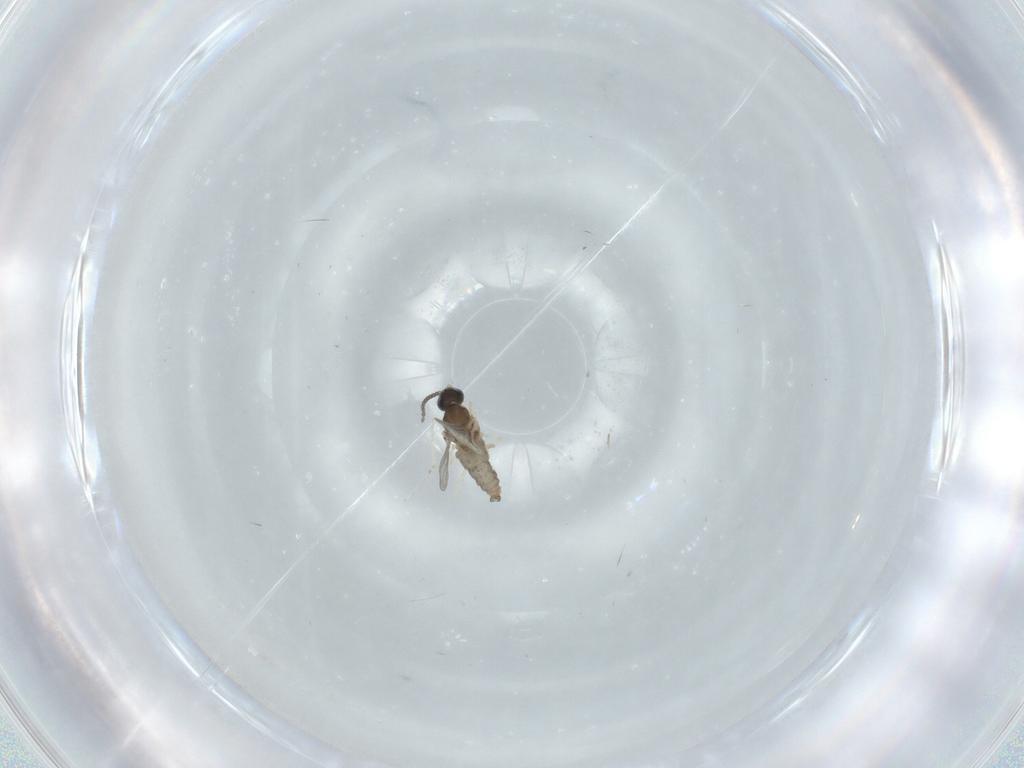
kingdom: Animalia
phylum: Arthropoda
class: Insecta
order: Diptera
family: Cecidomyiidae
